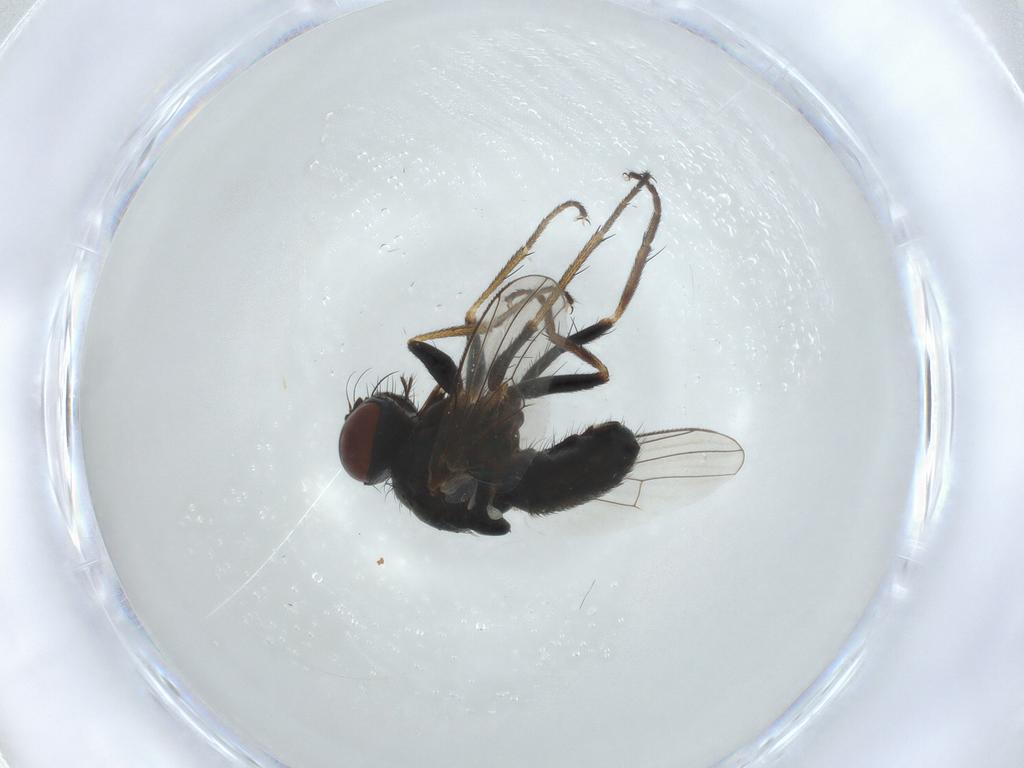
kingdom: Animalia
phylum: Arthropoda
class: Insecta
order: Diptera
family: Muscidae
